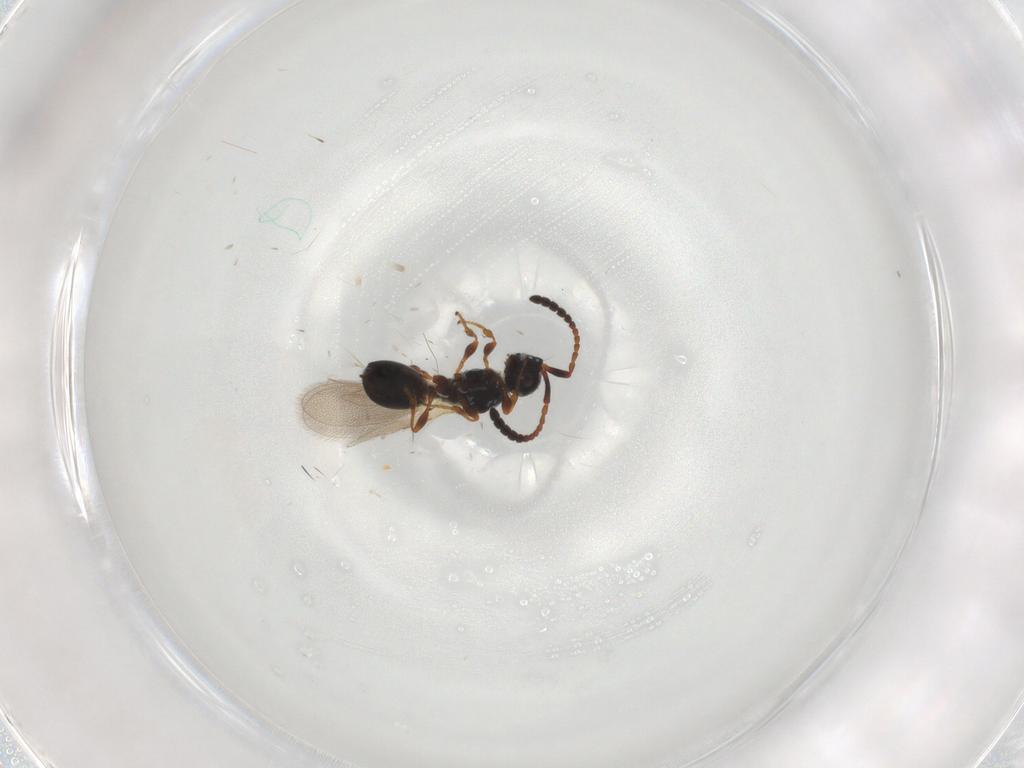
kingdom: Animalia
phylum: Arthropoda
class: Insecta
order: Hymenoptera
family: Diapriidae
